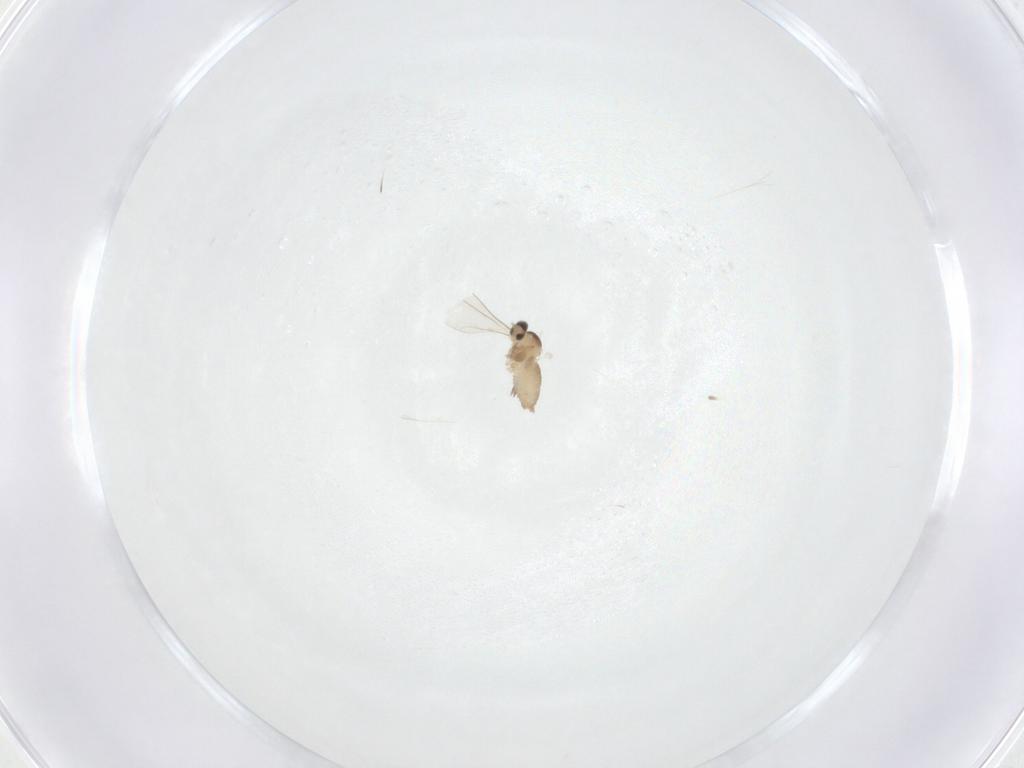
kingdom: Animalia
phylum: Arthropoda
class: Insecta
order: Diptera
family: Cecidomyiidae
